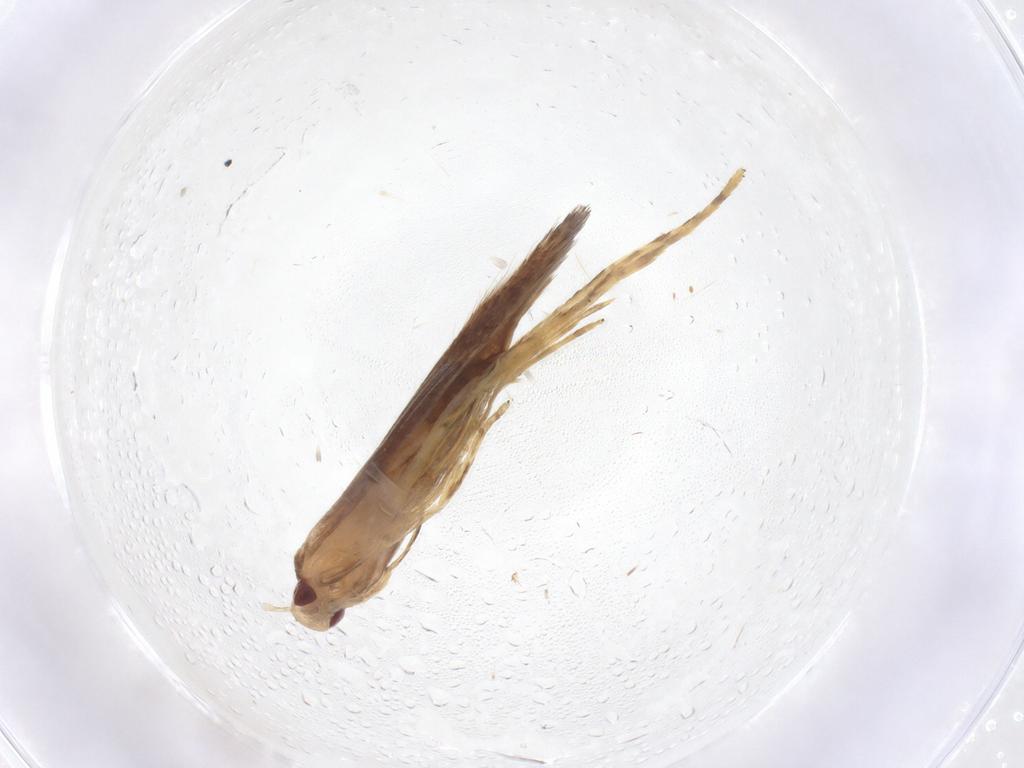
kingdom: Animalia
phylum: Arthropoda
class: Insecta
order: Lepidoptera
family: Cosmopterigidae
